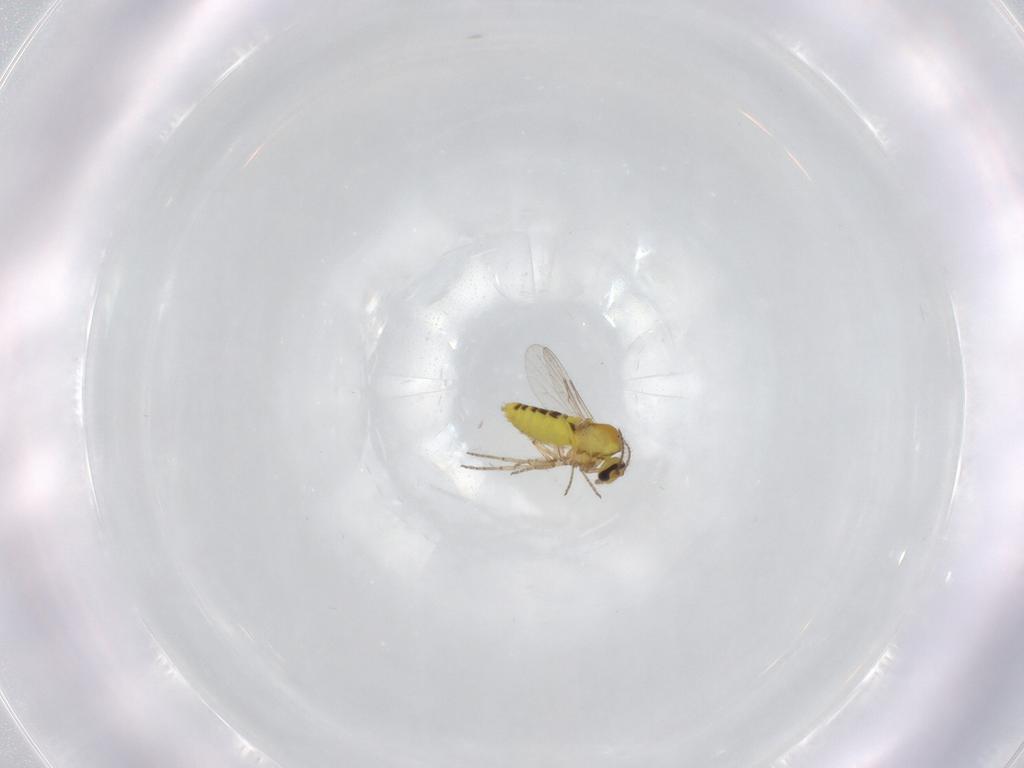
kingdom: Animalia
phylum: Arthropoda
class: Insecta
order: Diptera
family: Ceratopogonidae
